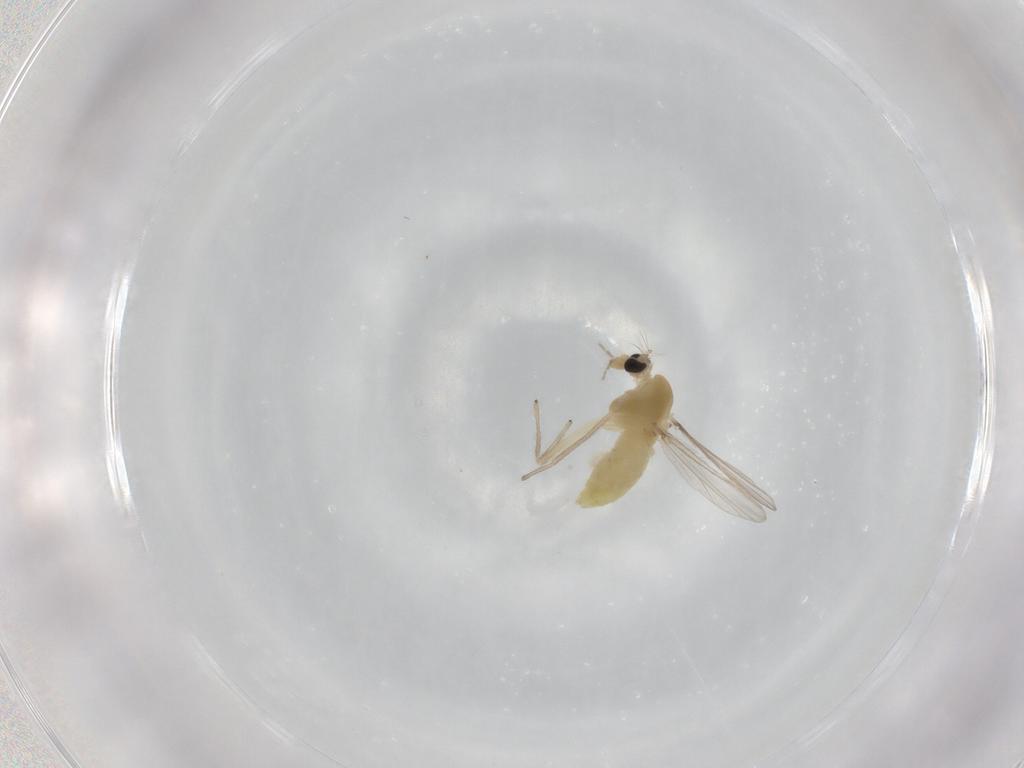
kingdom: Animalia
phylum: Arthropoda
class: Insecta
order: Diptera
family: Chironomidae
